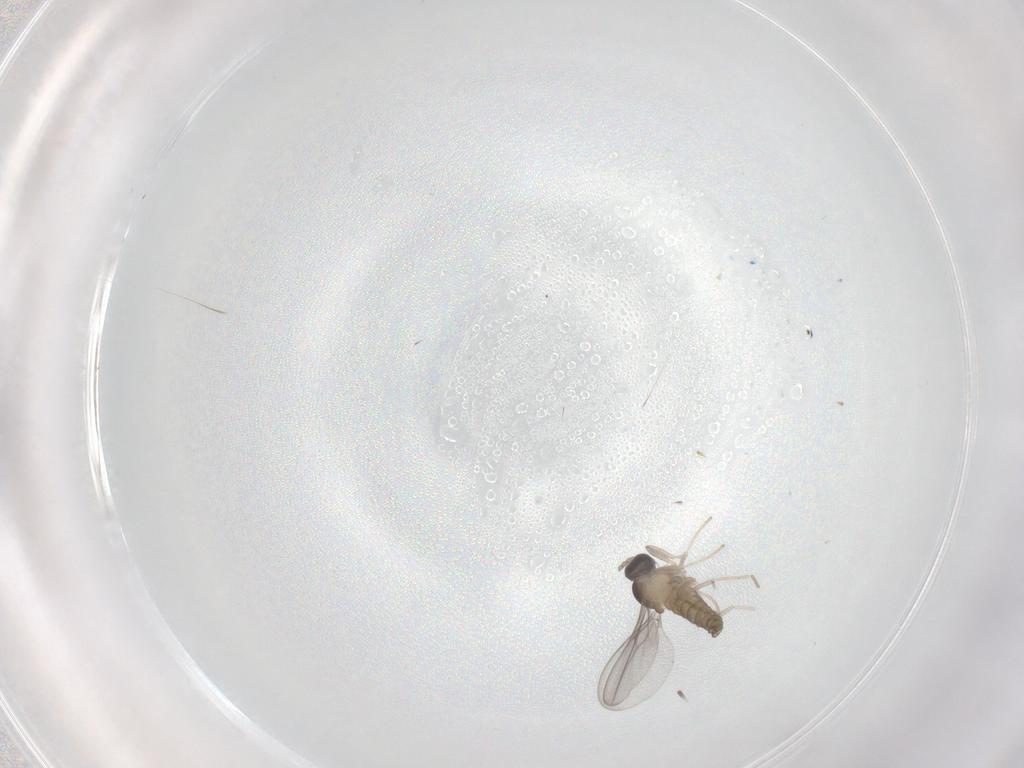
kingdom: Animalia
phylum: Arthropoda
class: Insecta
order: Diptera
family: Cecidomyiidae
